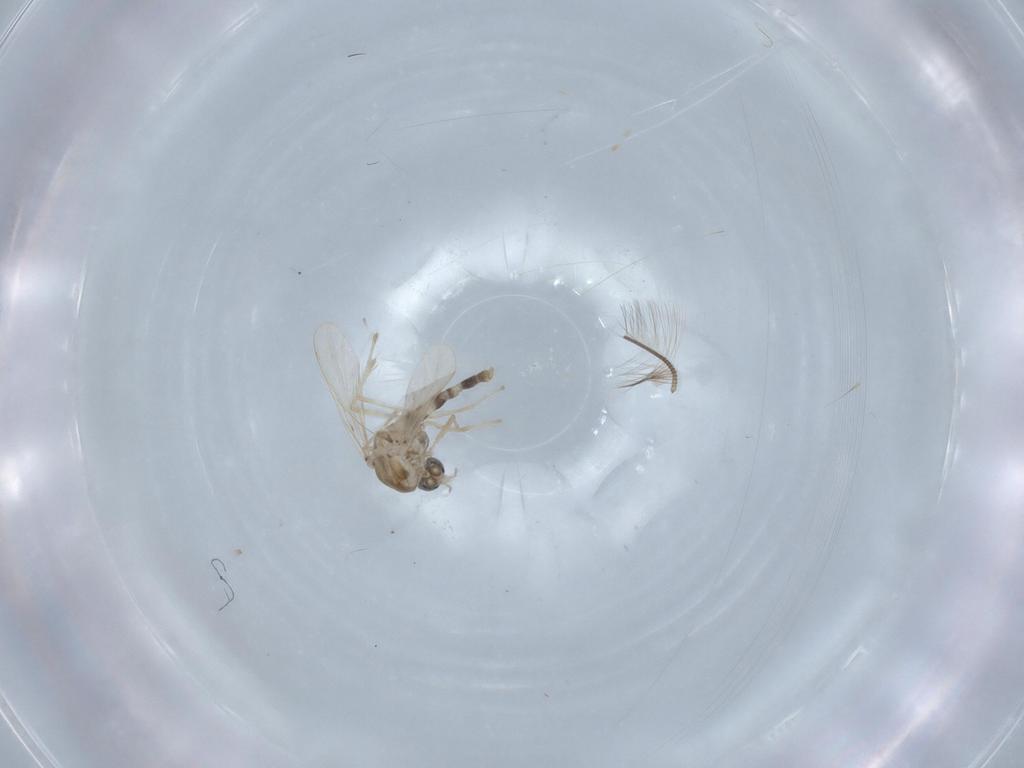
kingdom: Animalia
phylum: Arthropoda
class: Insecta
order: Diptera
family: Chironomidae
